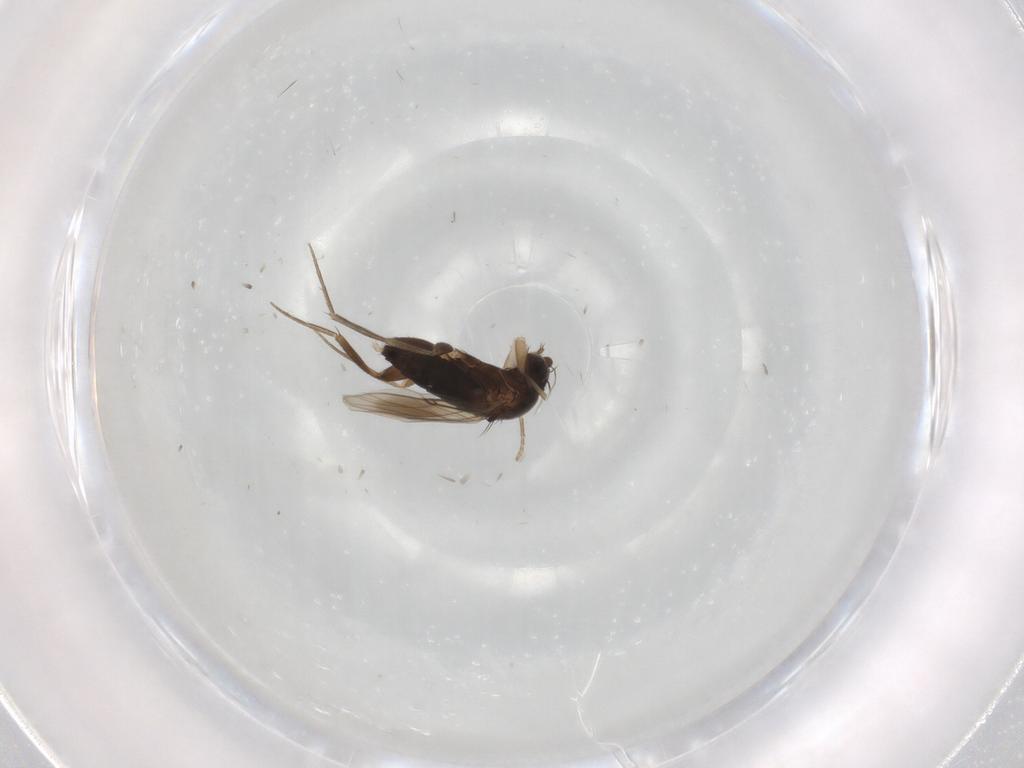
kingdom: Animalia
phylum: Arthropoda
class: Insecta
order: Diptera
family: Phoridae
